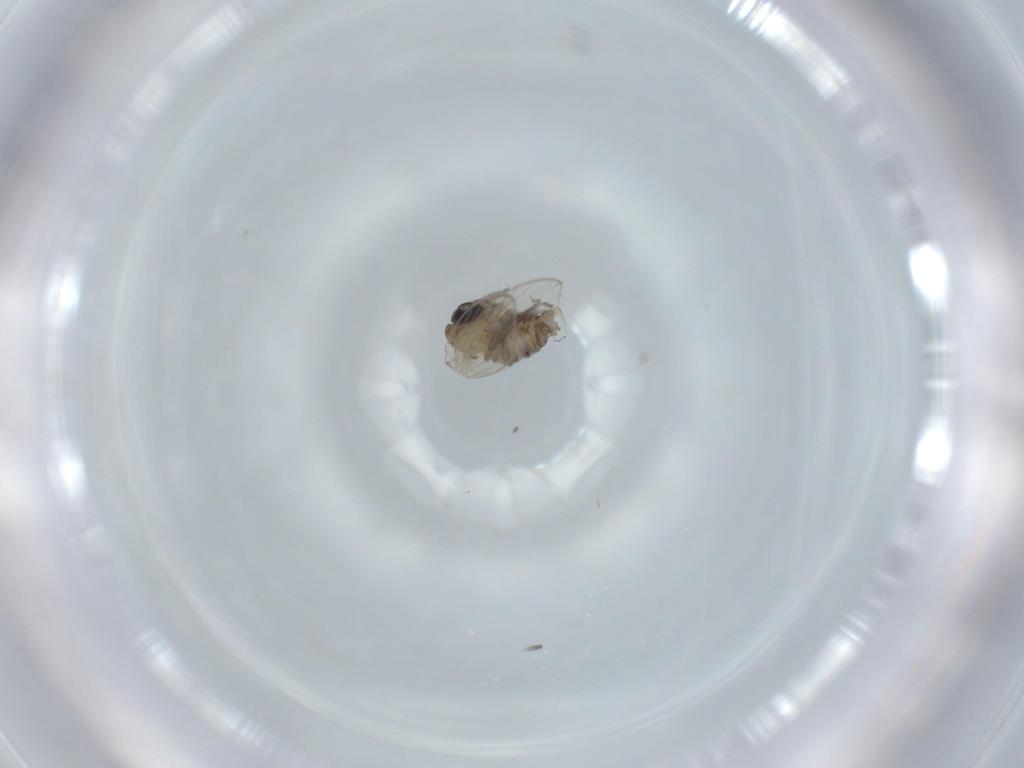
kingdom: Animalia
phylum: Arthropoda
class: Insecta
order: Diptera
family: Psychodidae
